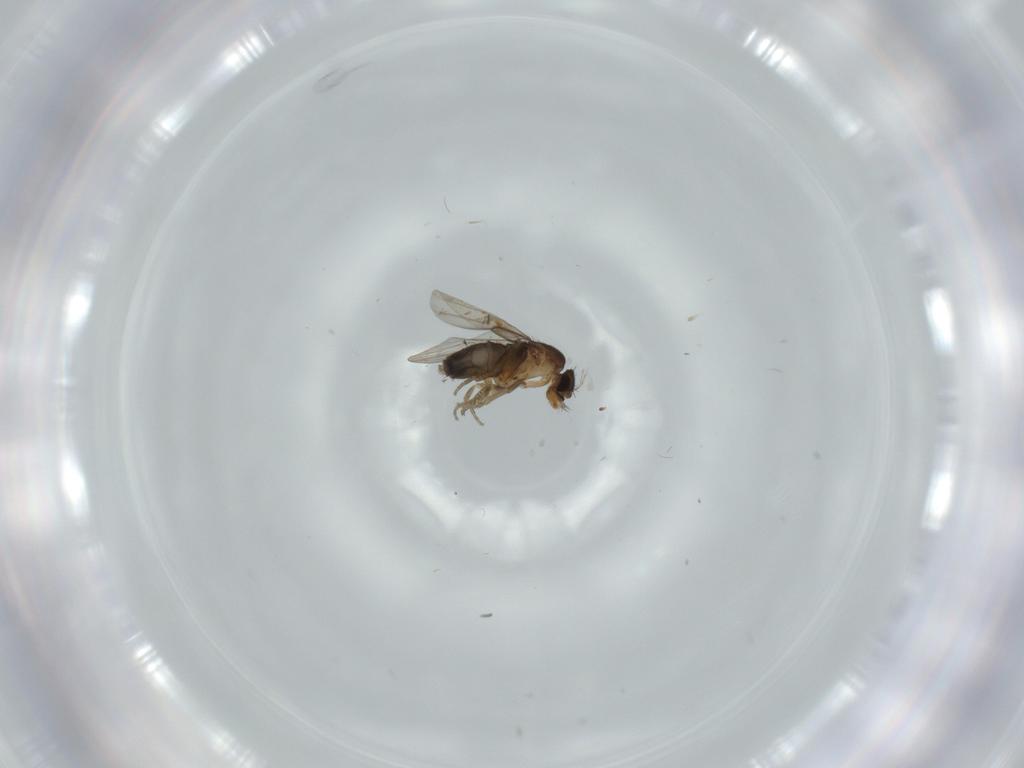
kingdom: Animalia
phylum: Arthropoda
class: Insecta
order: Diptera
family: Phoridae
